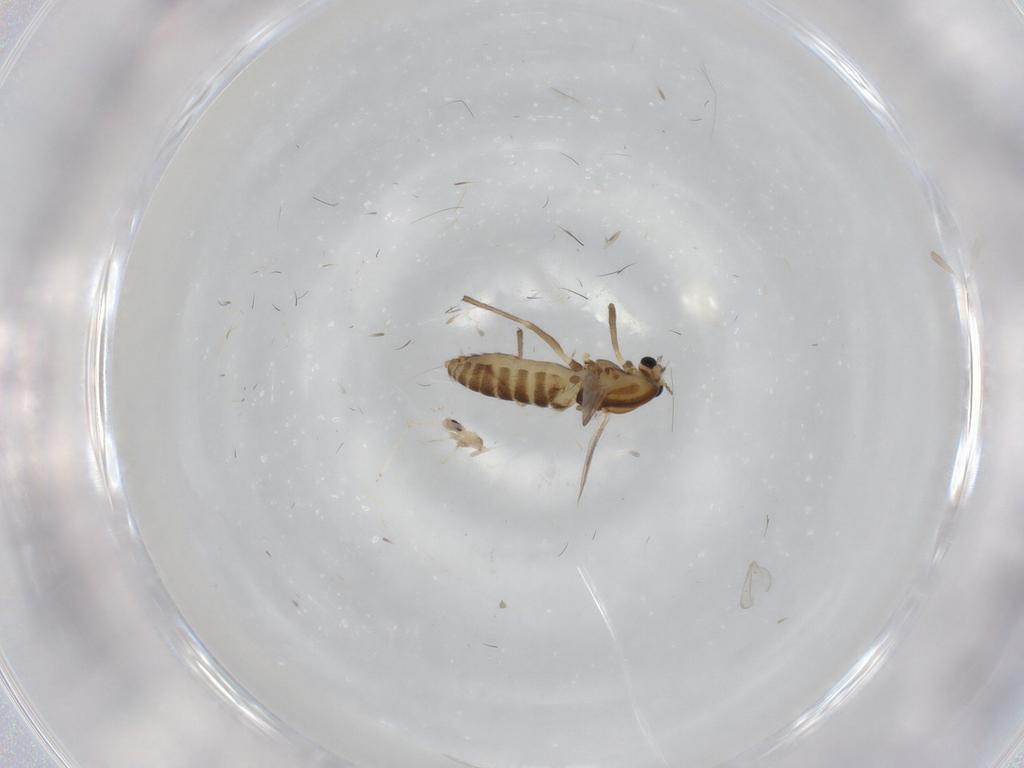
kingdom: Animalia
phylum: Arthropoda
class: Insecta
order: Diptera
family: Chironomidae
